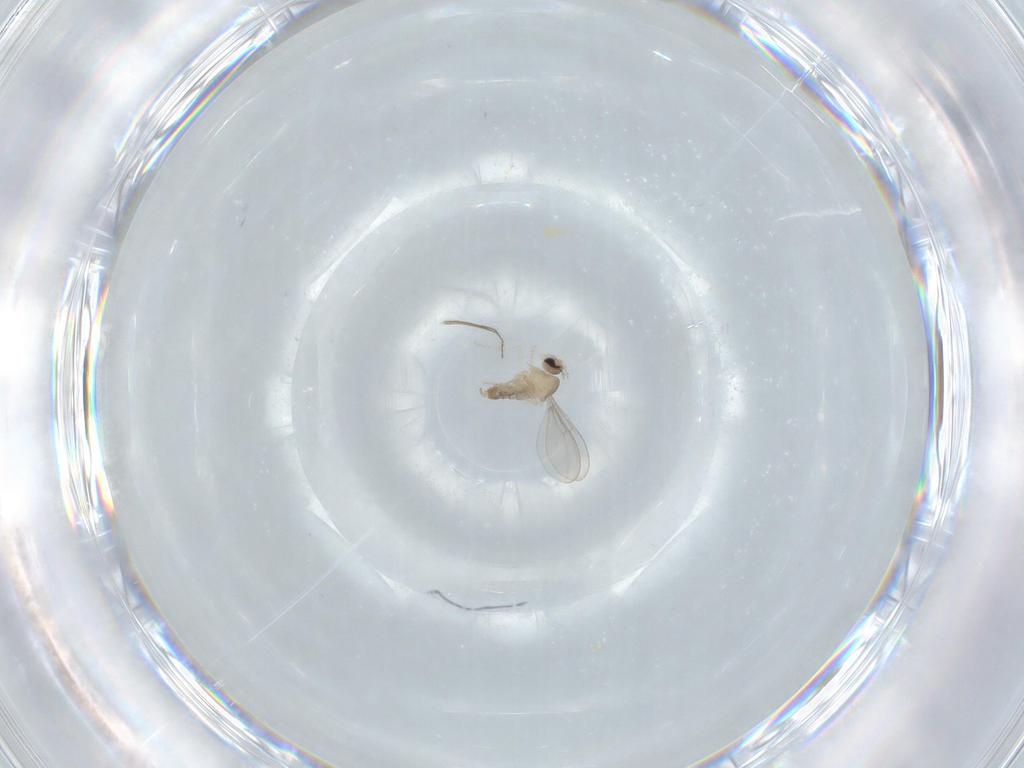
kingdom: Animalia
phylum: Arthropoda
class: Insecta
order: Diptera
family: Cecidomyiidae
